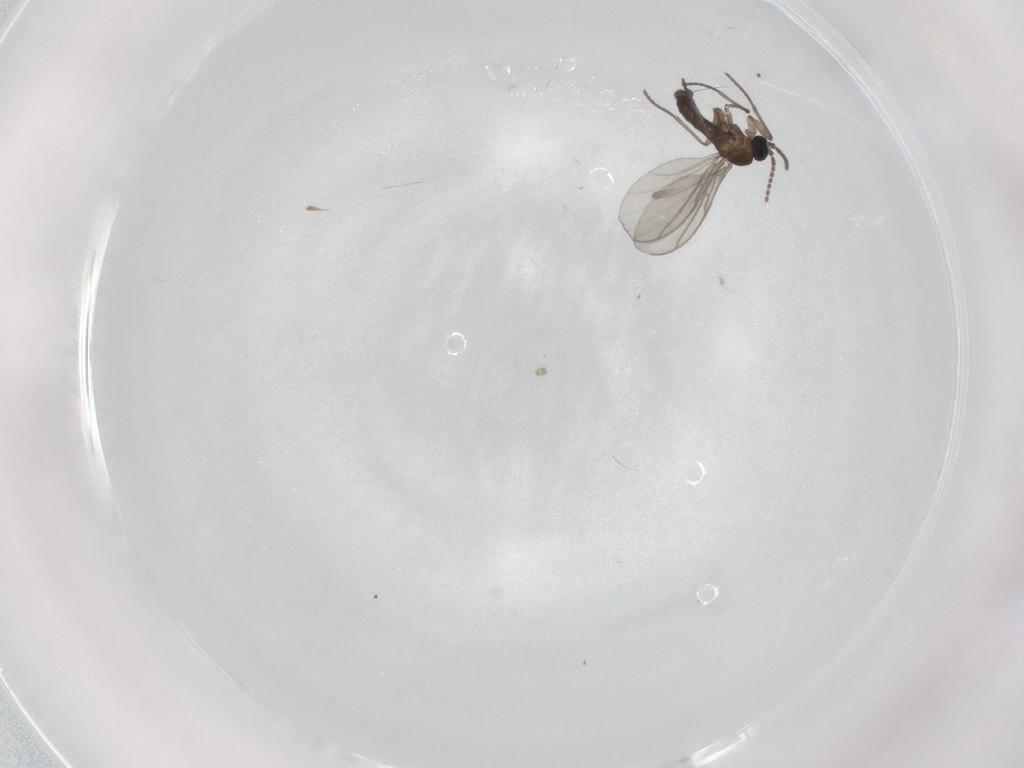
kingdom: Animalia
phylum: Arthropoda
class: Insecta
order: Diptera
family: Sciaridae
